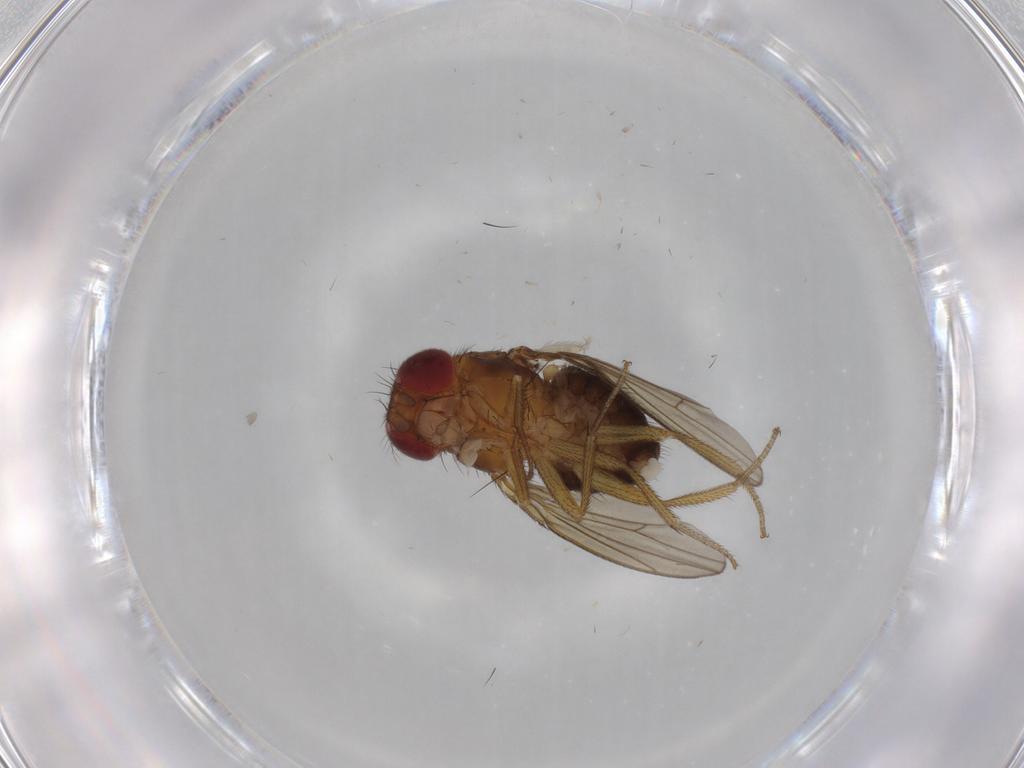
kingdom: Animalia
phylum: Arthropoda
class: Insecta
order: Diptera
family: Drosophilidae
